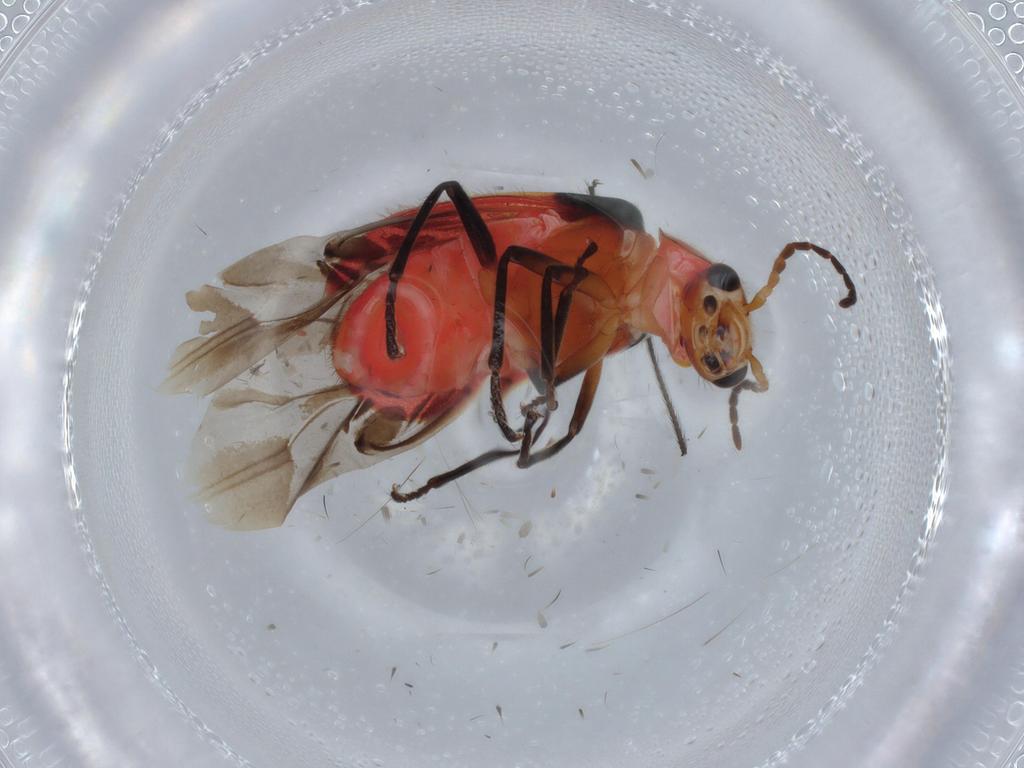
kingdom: Animalia
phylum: Arthropoda
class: Insecta
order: Coleoptera
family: Melyridae
